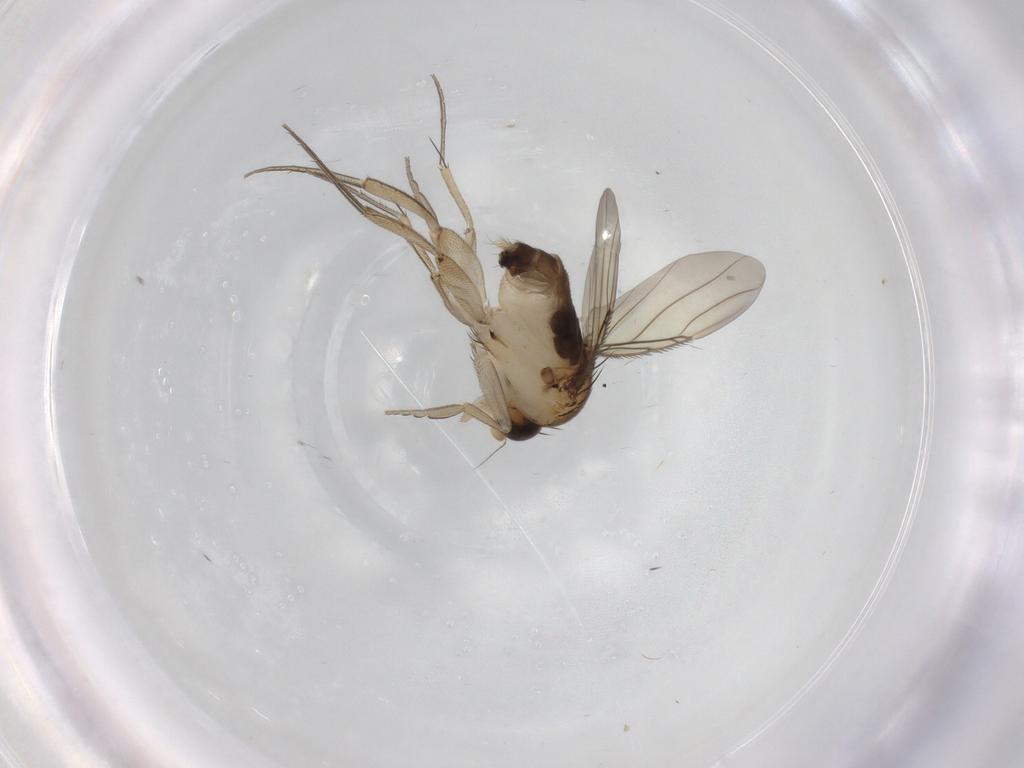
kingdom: Animalia
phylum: Arthropoda
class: Insecta
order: Diptera
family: Phoridae
